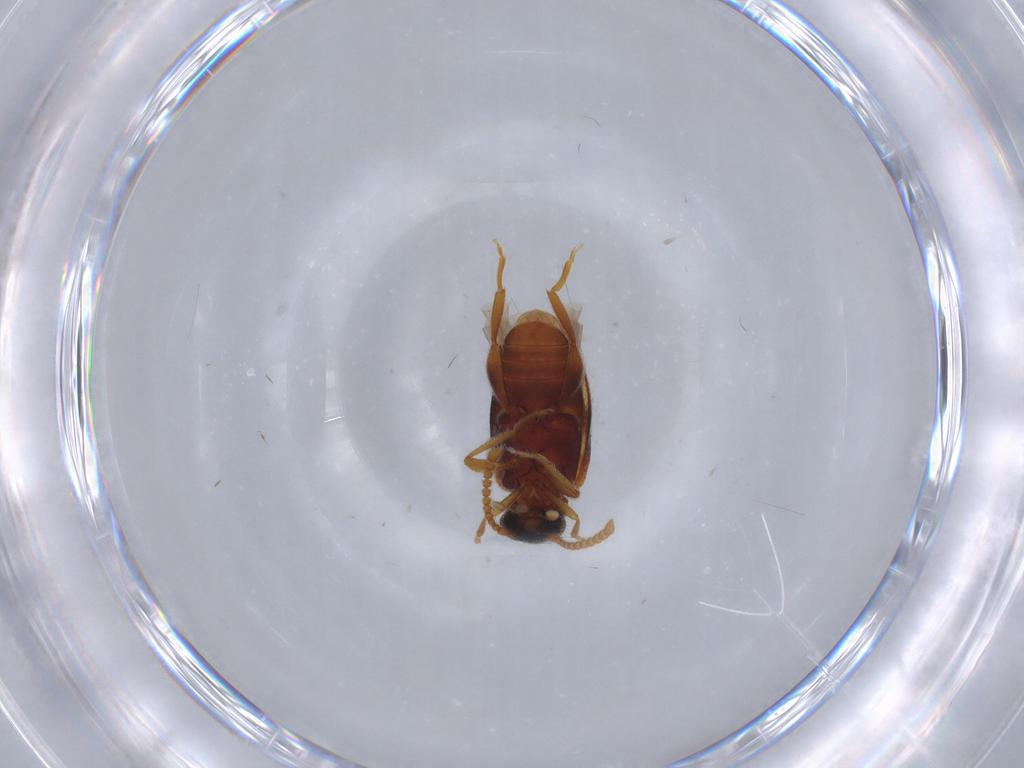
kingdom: Animalia
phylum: Arthropoda
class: Insecta
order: Coleoptera
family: Aderidae
